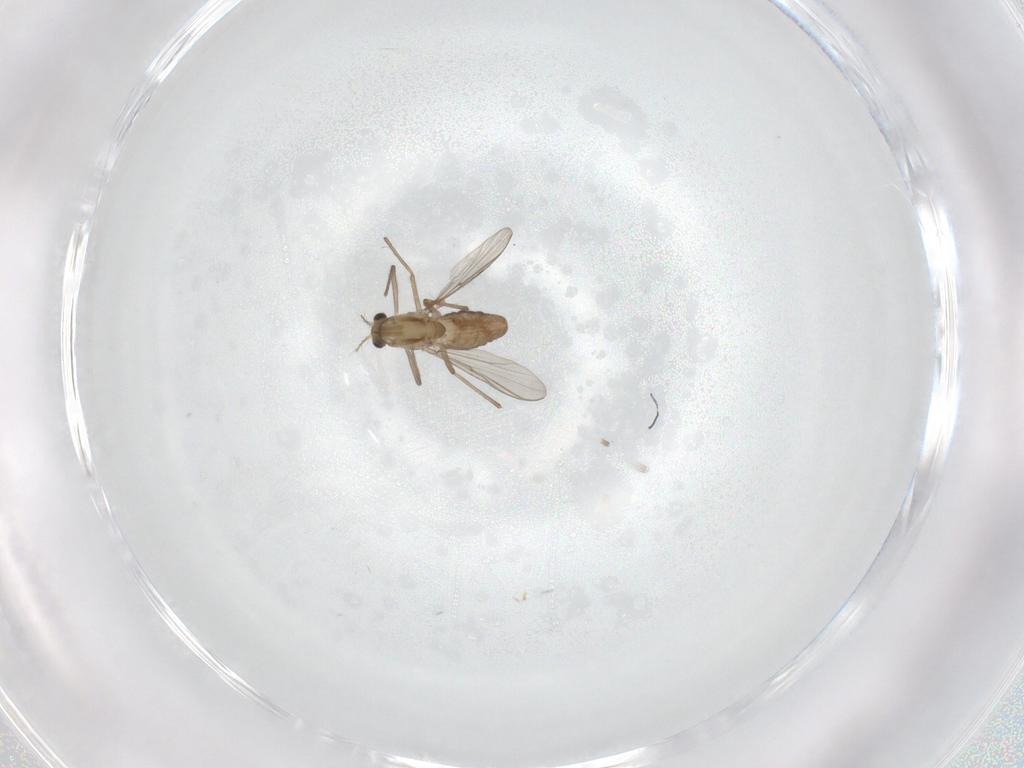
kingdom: Animalia
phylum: Arthropoda
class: Insecta
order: Diptera
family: Chironomidae
